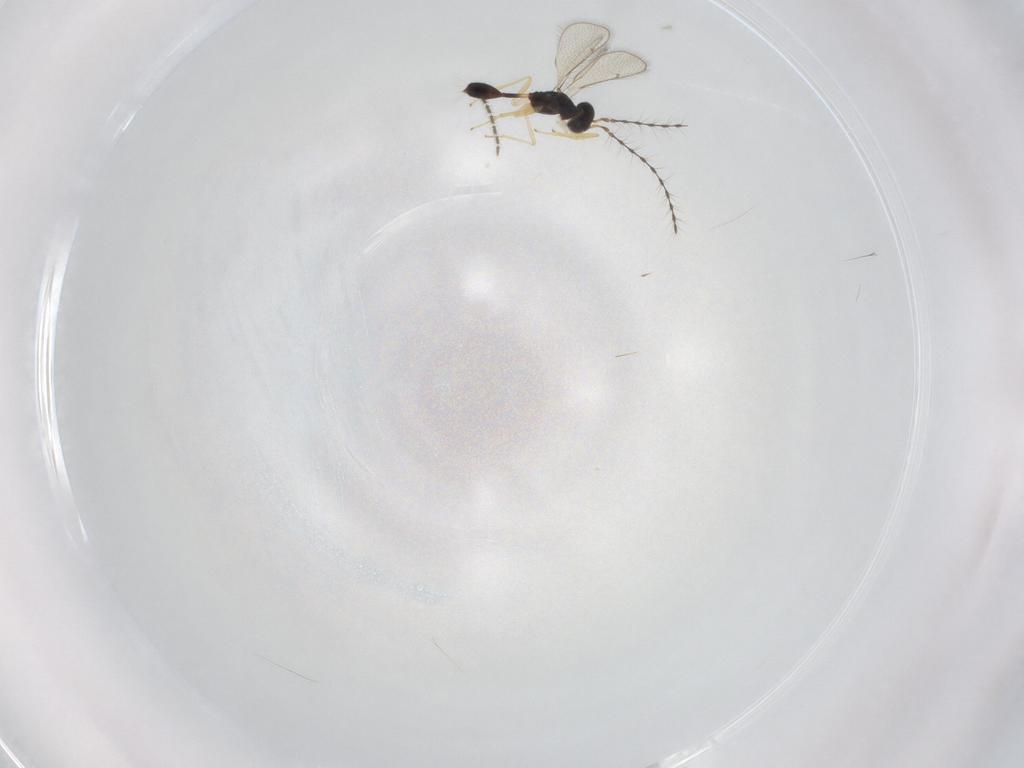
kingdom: Animalia
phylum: Arthropoda
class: Insecta
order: Hymenoptera
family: Diparidae
